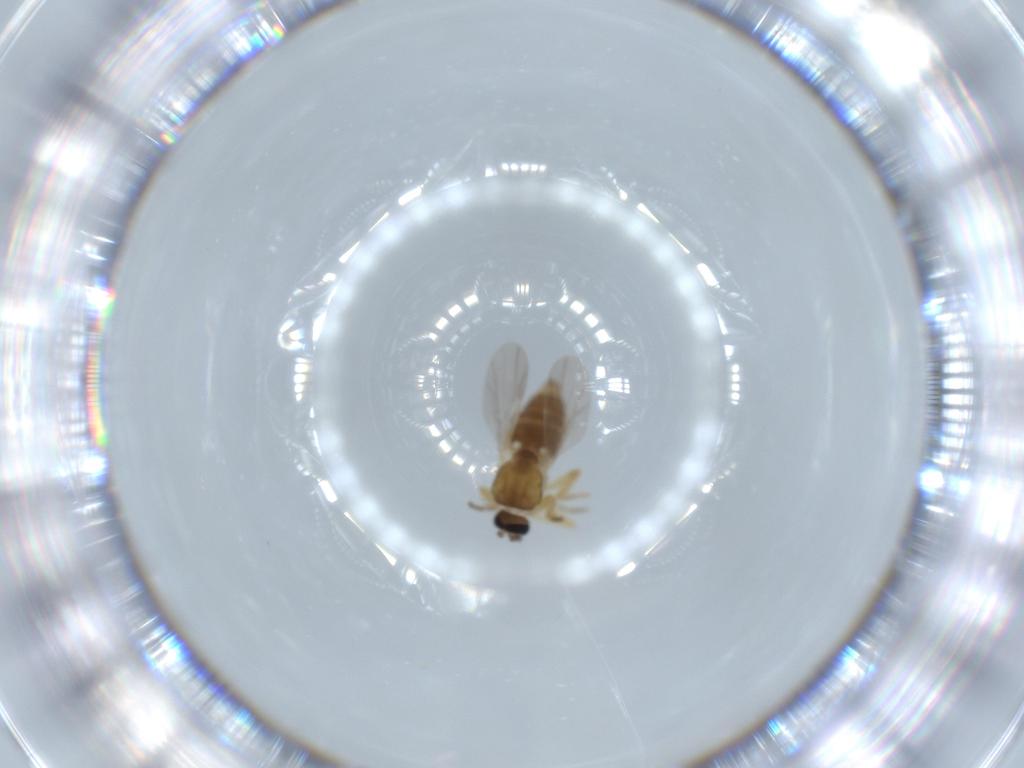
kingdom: Animalia
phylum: Arthropoda
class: Insecta
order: Diptera
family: Ceratopogonidae
